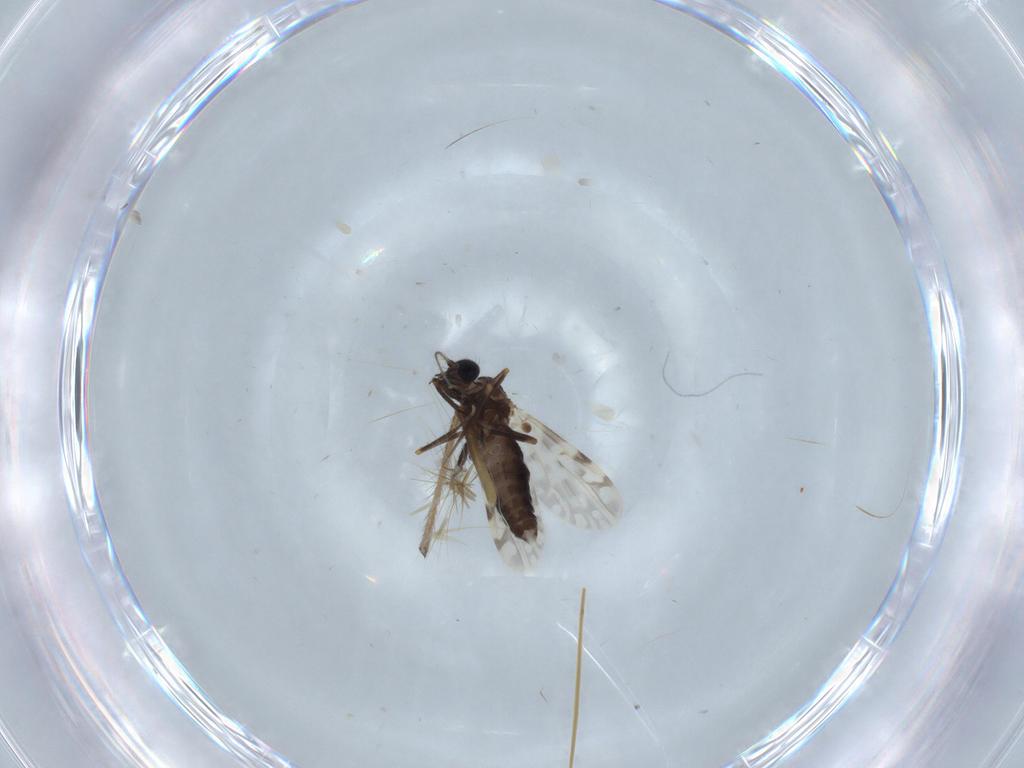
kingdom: Animalia
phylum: Arthropoda
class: Insecta
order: Diptera
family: Ceratopogonidae
